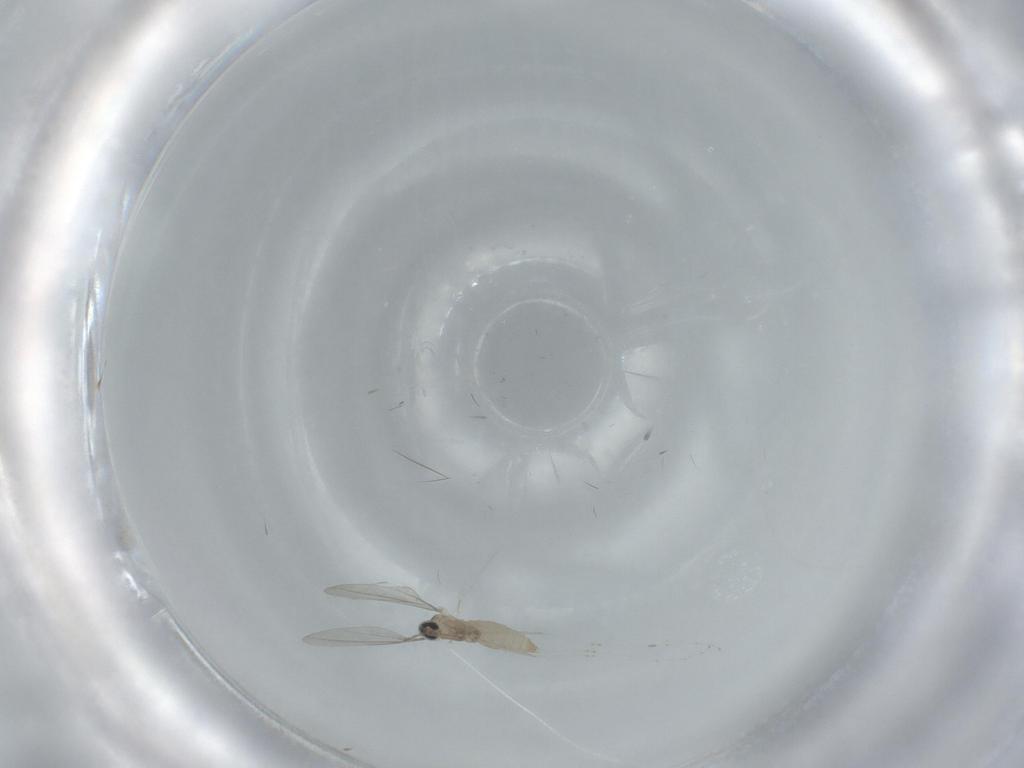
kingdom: Animalia
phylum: Arthropoda
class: Insecta
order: Diptera
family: Cecidomyiidae
